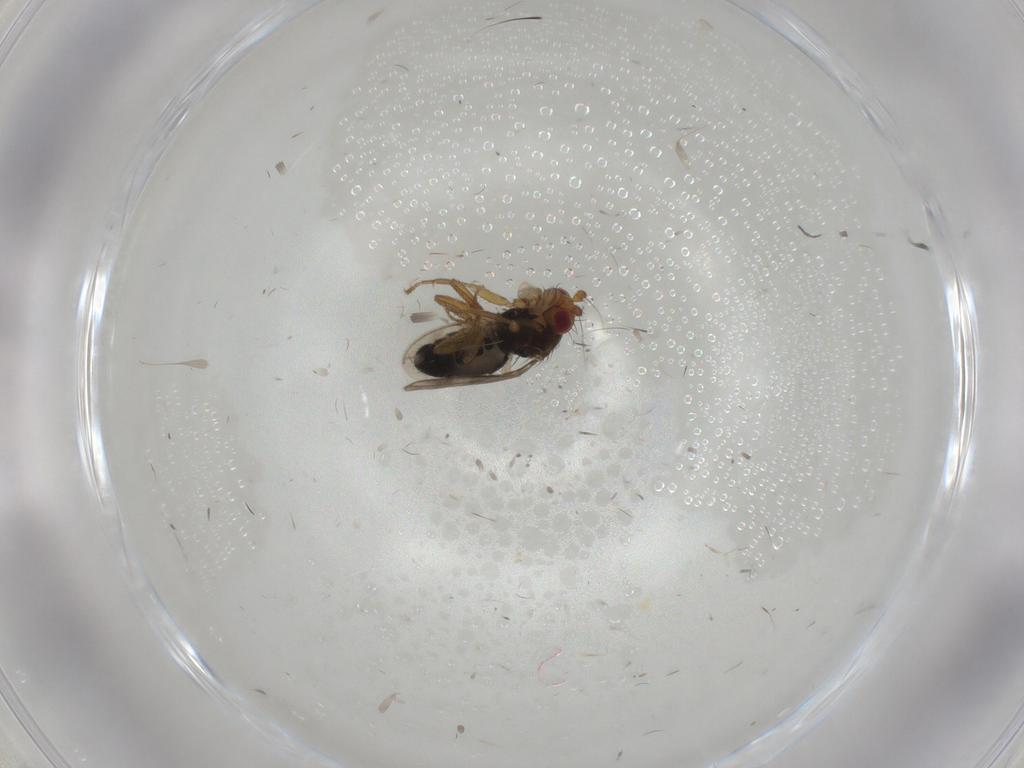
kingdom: Animalia
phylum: Arthropoda
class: Insecta
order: Diptera
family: Sphaeroceridae
